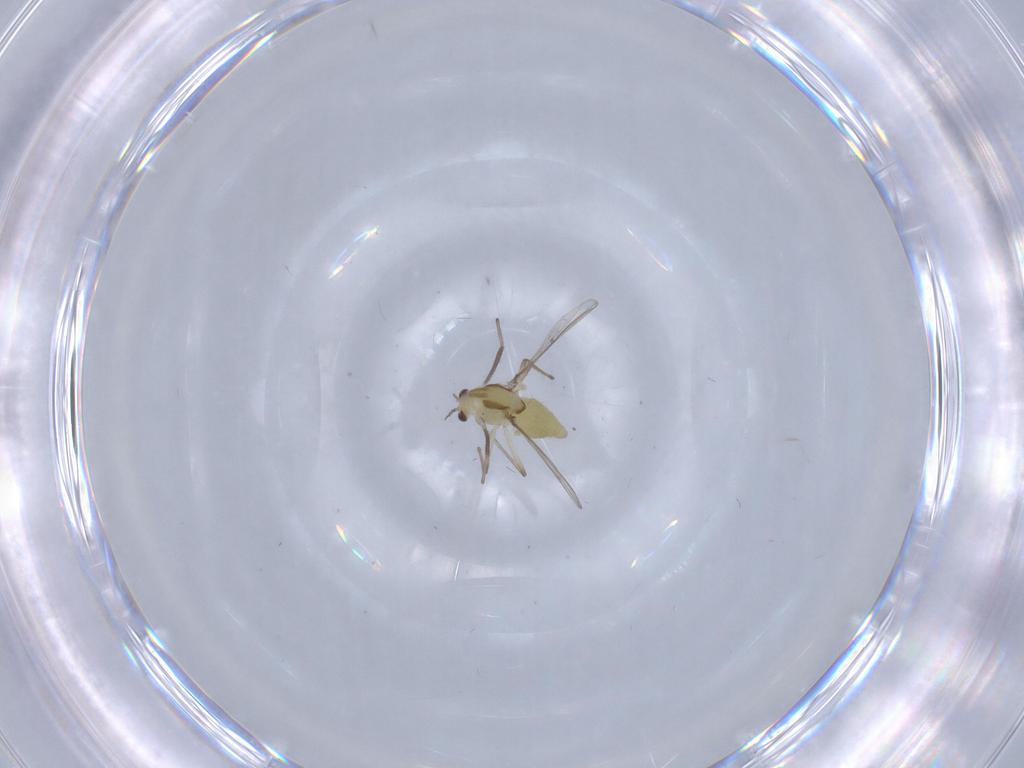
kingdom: Animalia
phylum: Arthropoda
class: Insecta
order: Diptera
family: Chironomidae
